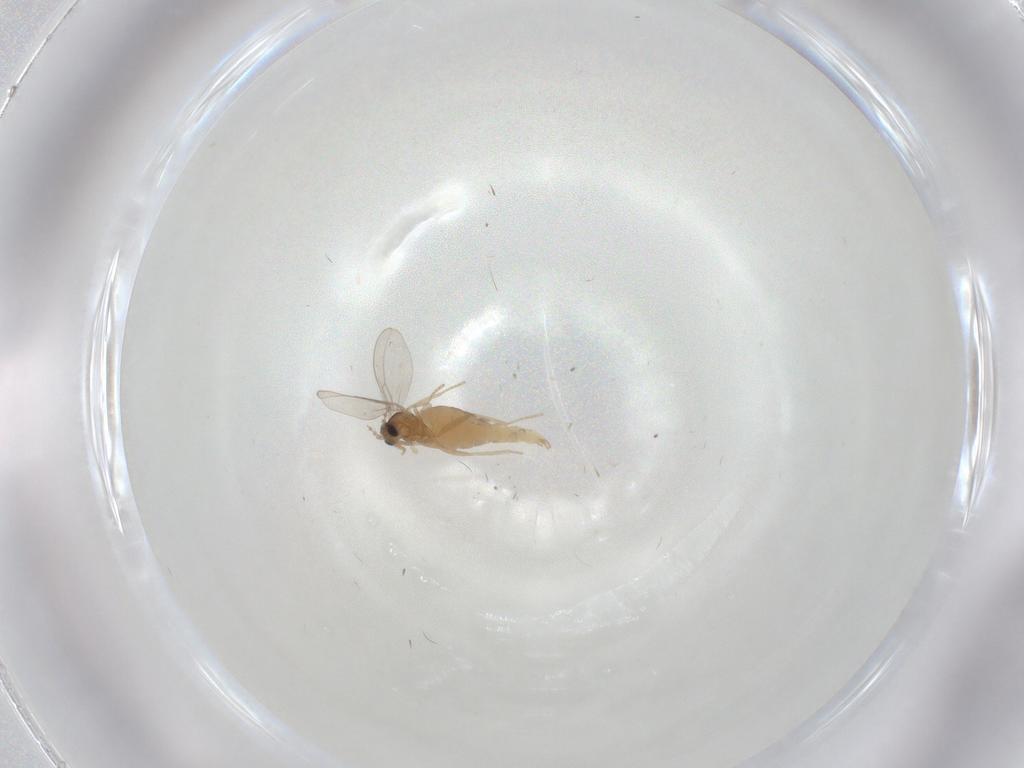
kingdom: Animalia
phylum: Arthropoda
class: Insecta
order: Diptera
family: Cecidomyiidae
